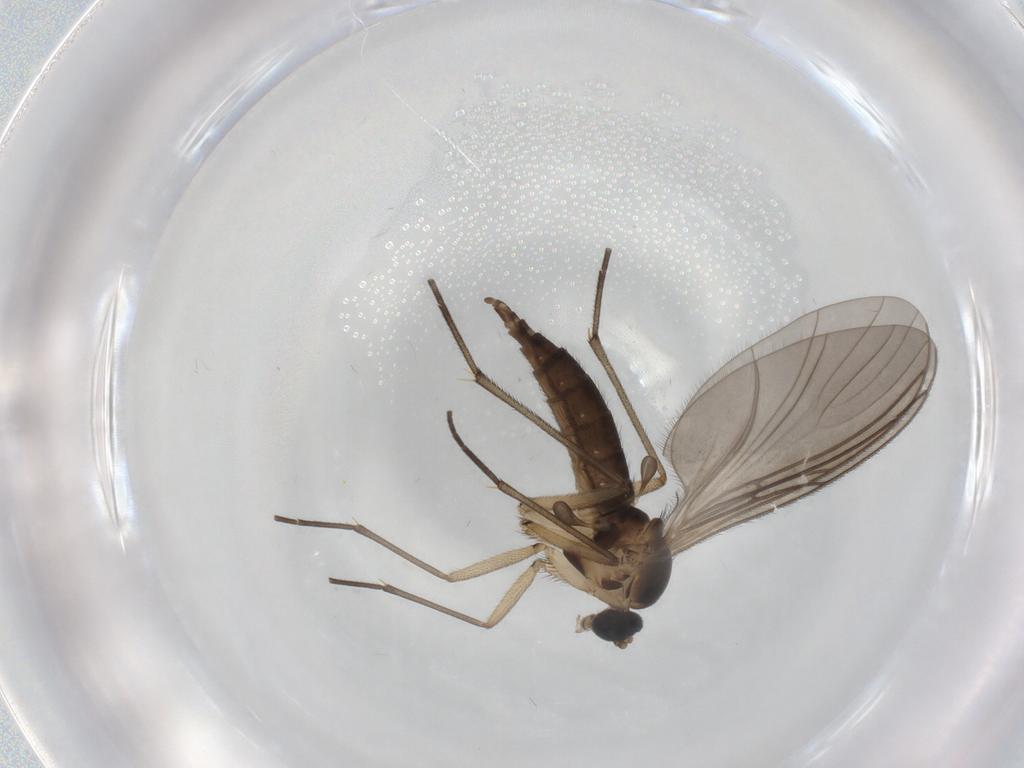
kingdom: Animalia
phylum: Arthropoda
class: Insecta
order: Diptera
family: Sciaridae
